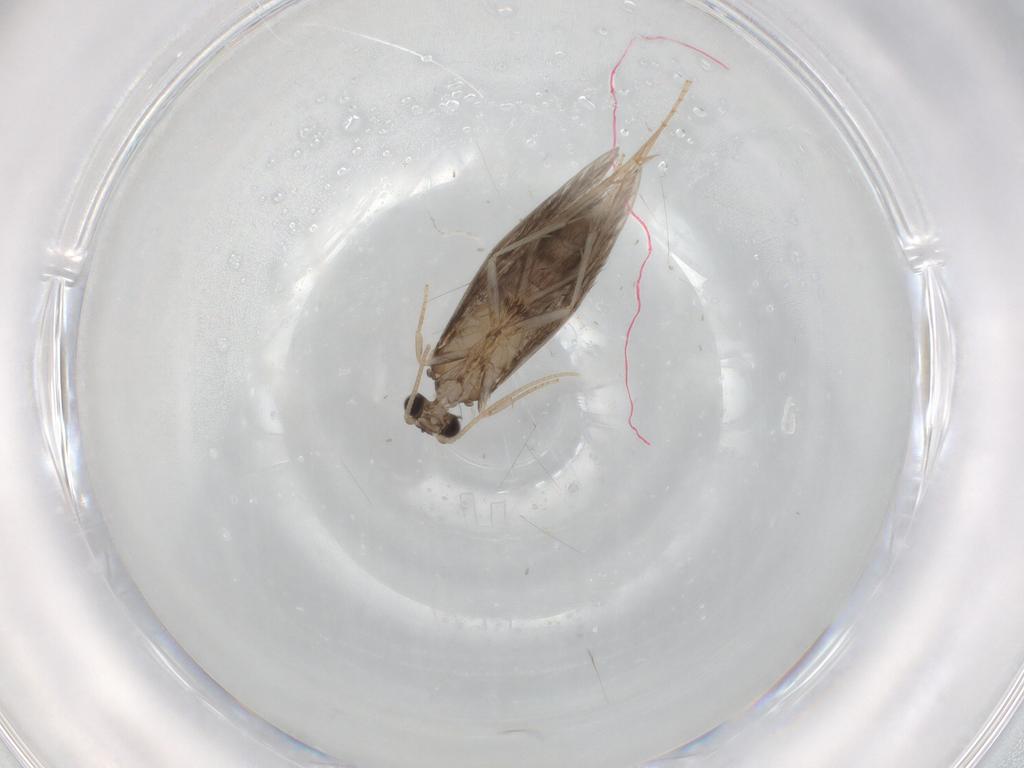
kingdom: Animalia
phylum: Arthropoda
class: Insecta
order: Trichoptera
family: Hydroptilidae
